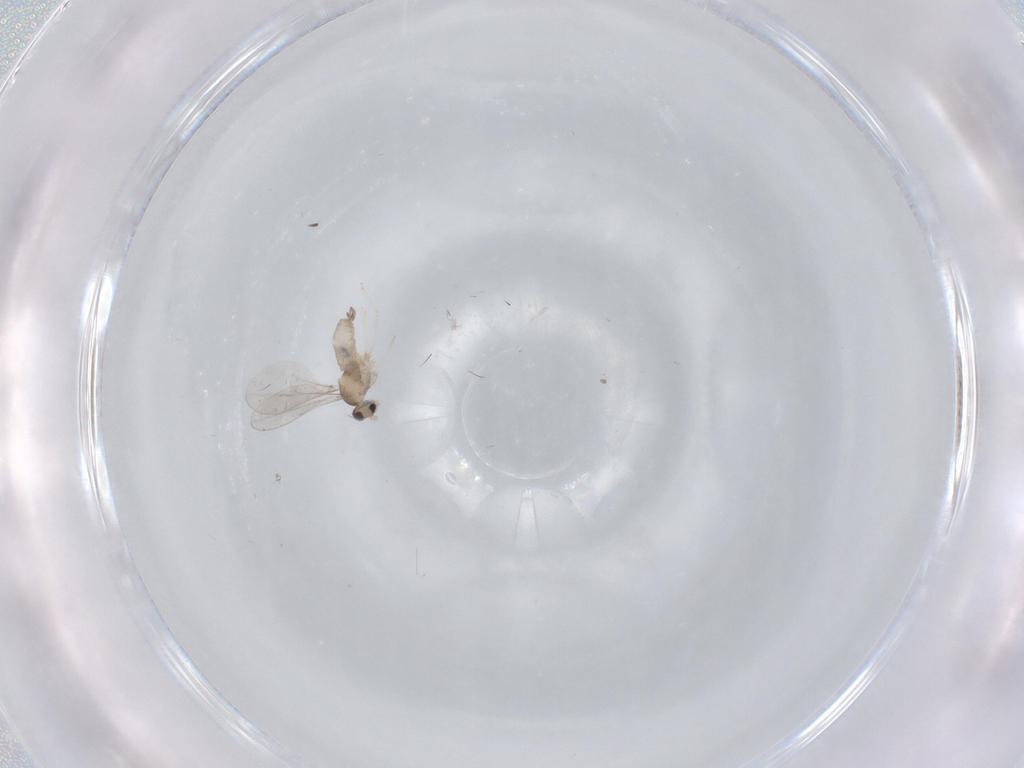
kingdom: Animalia
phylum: Arthropoda
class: Insecta
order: Diptera
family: Cecidomyiidae
